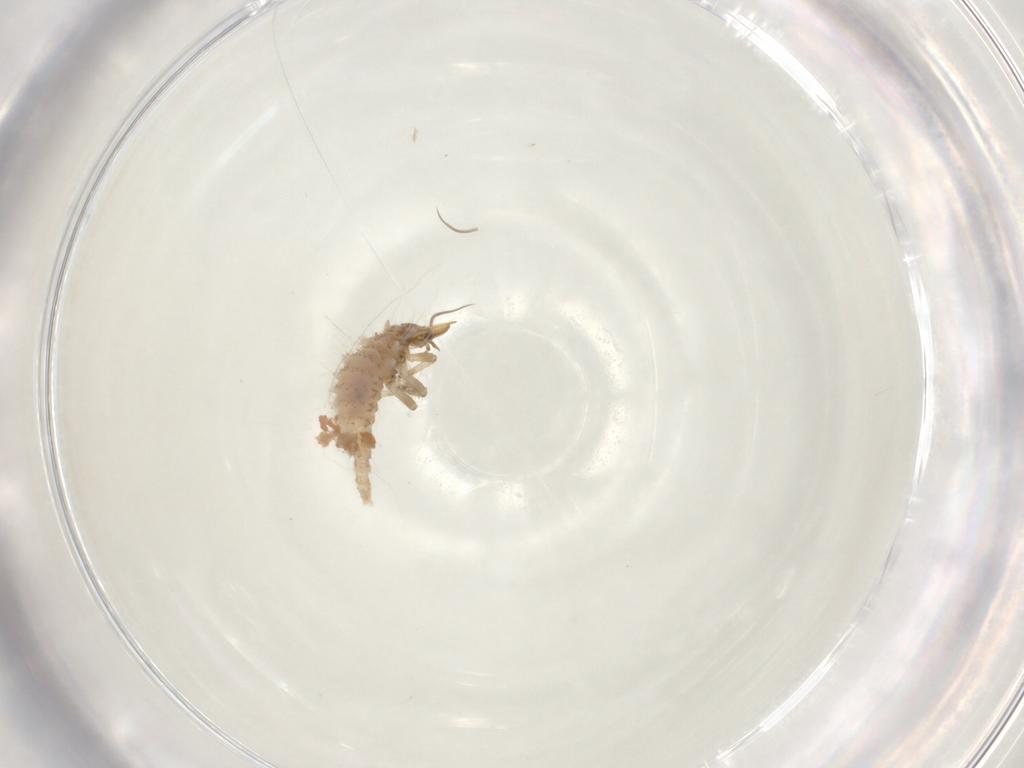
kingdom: Animalia
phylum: Arthropoda
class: Insecta
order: Neuroptera
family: Chrysopidae
